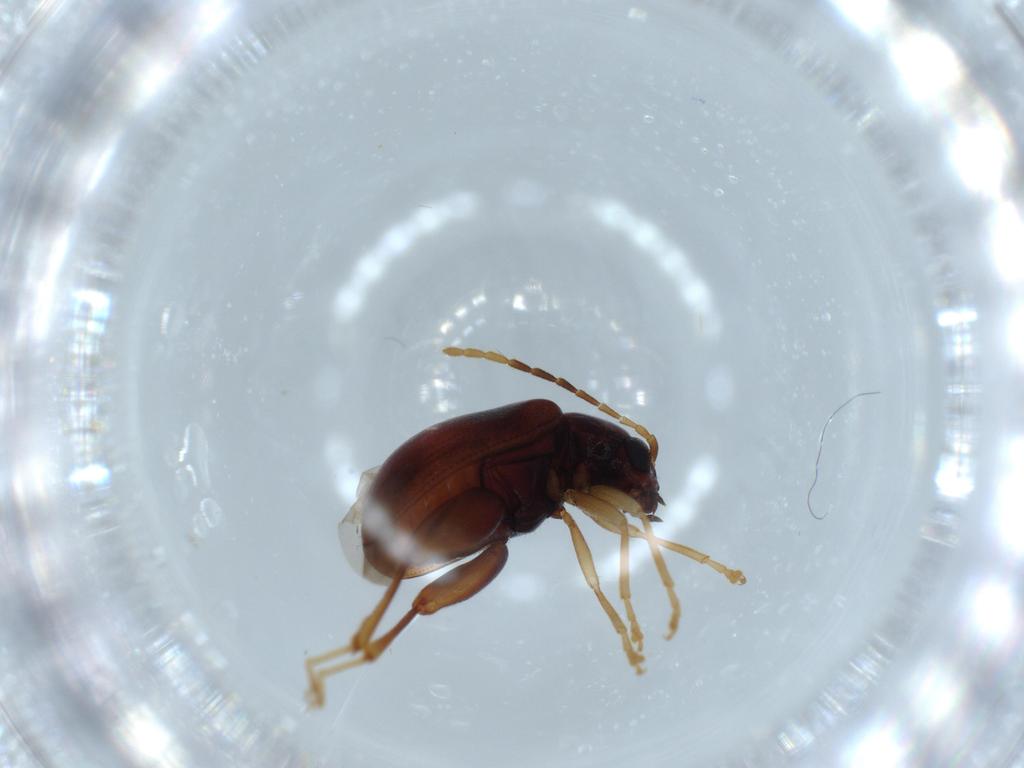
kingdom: Animalia
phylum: Arthropoda
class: Insecta
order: Coleoptera
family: Chrysomelidae
